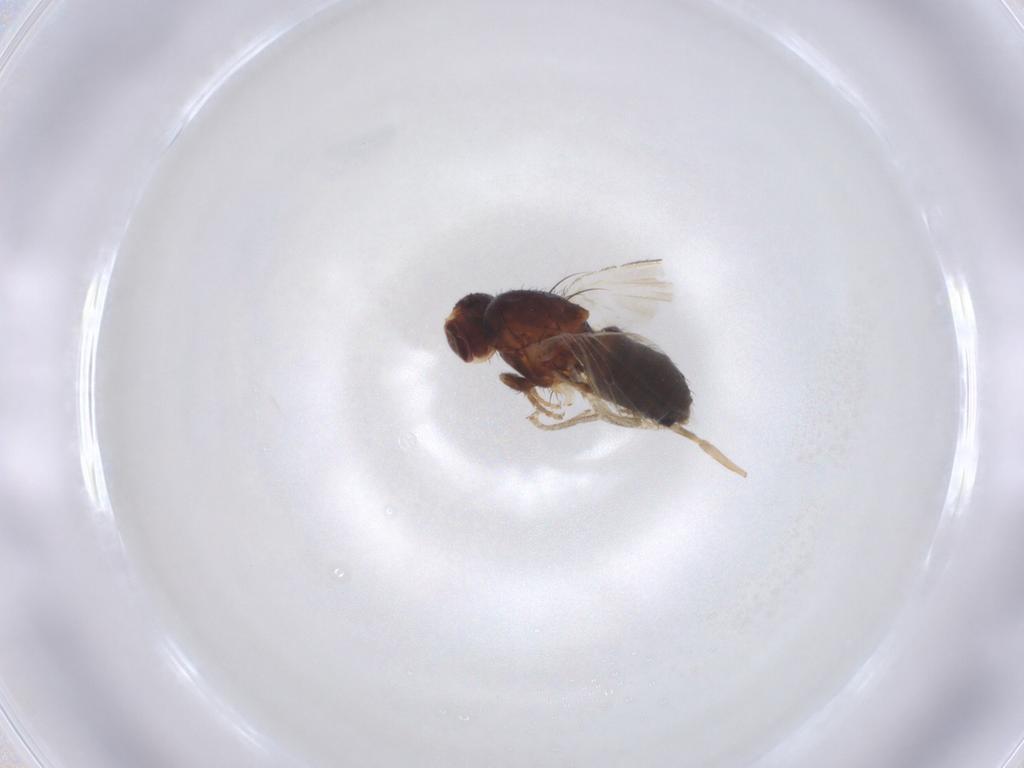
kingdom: Animalia
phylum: Arthropoda
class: Insecta
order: Diptera
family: Heleomyzidae
